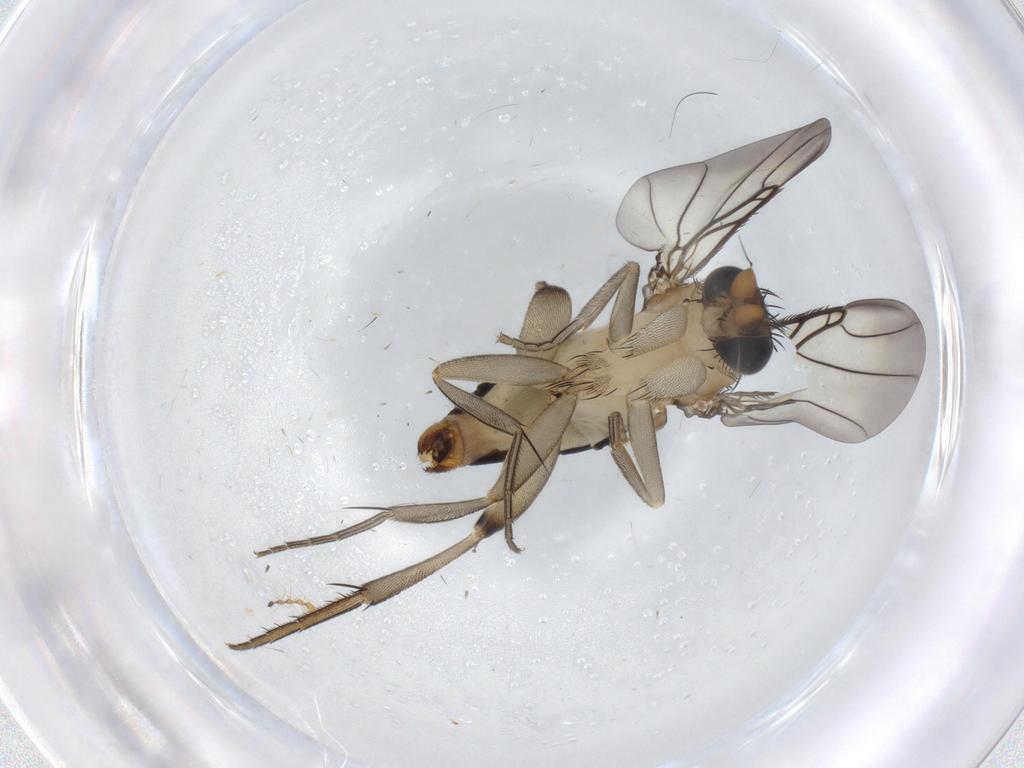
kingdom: Animalia
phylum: Arthropoda
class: Insecta
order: Diptera
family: Phoridae
